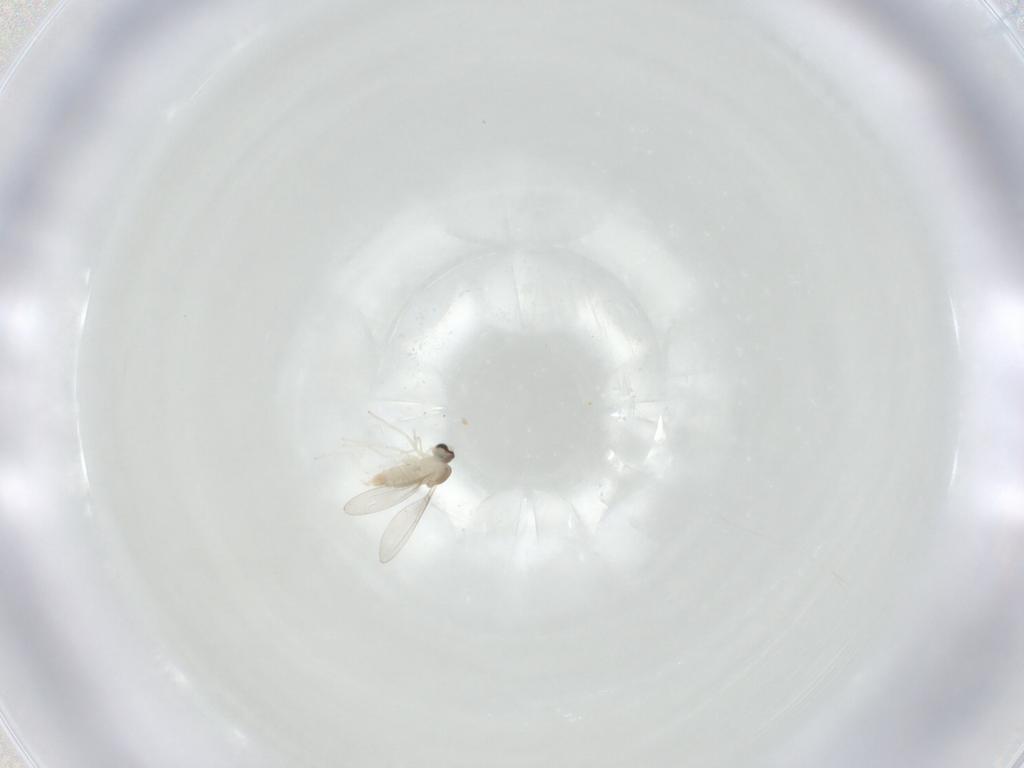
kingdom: Animalia
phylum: Arthropoda
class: Insecta
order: Diptera
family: Cecidomyiidae
